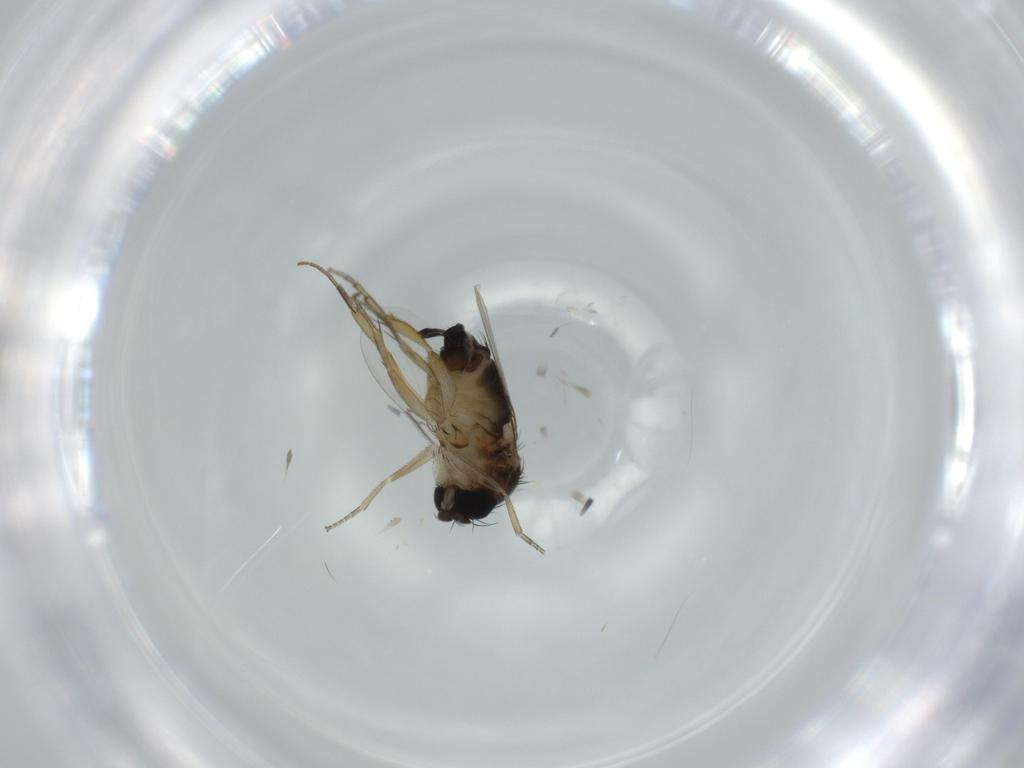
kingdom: Animalia
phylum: Arthropoda
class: Insecta
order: Diptera
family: Phoridae
